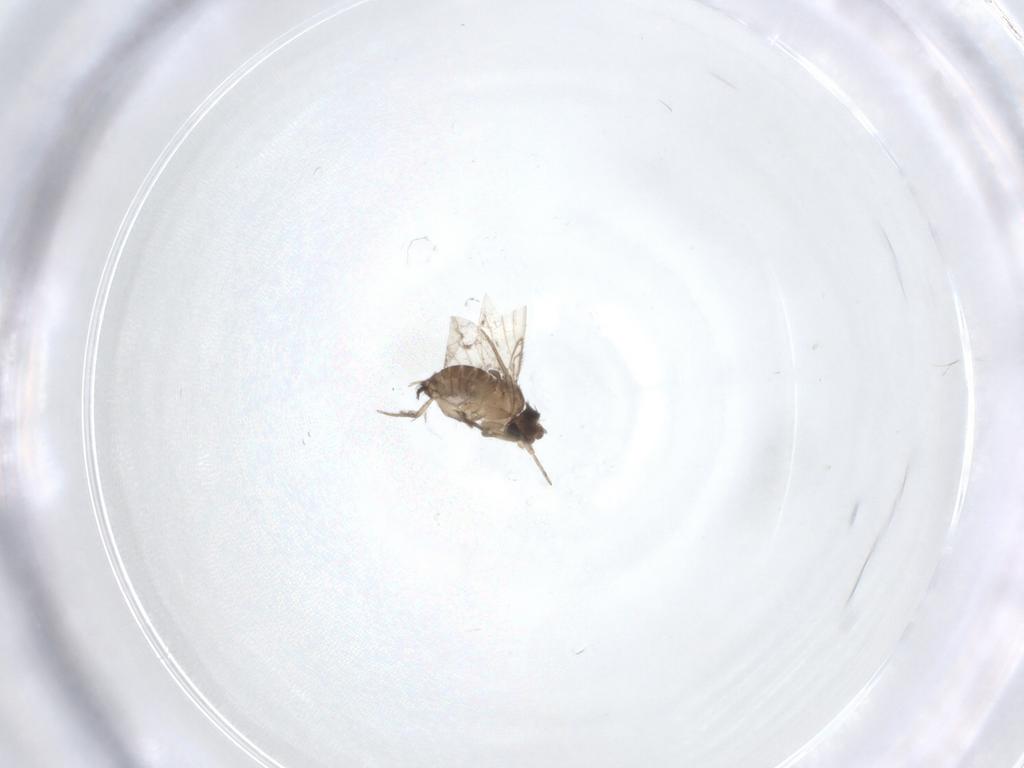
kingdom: Animalia
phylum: Arthropoda
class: Insecta
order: Diptera
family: Phoridae
